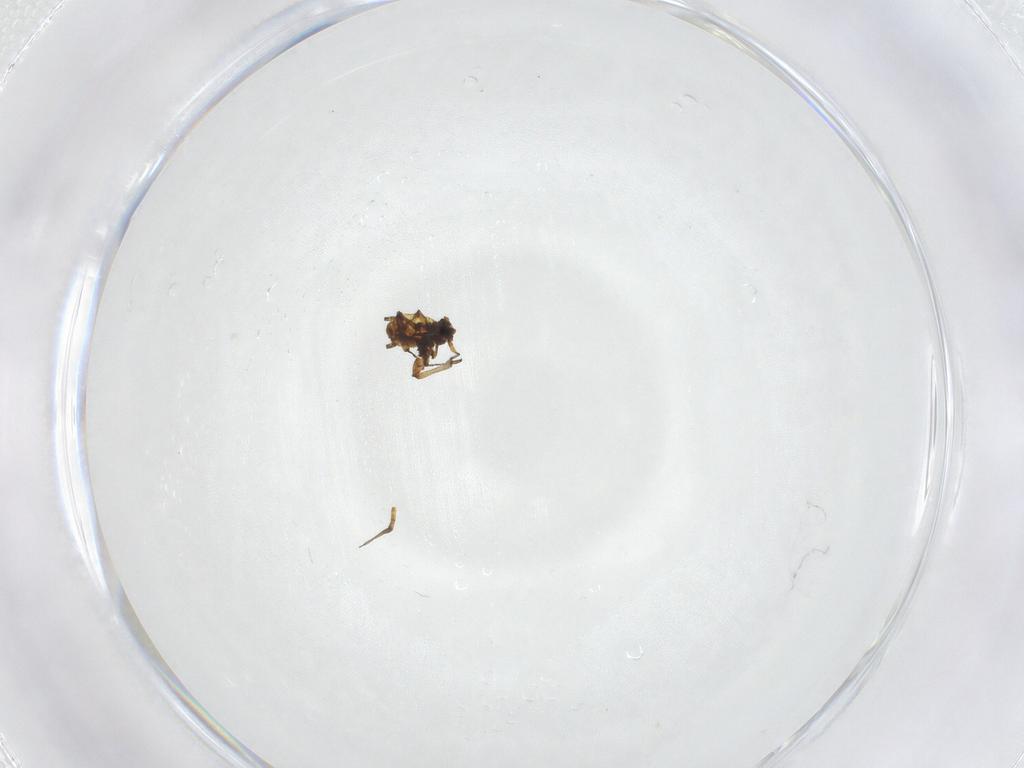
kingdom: Animalia
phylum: Arthropoda
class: Insecta
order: Hemiptera
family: Aphididae
